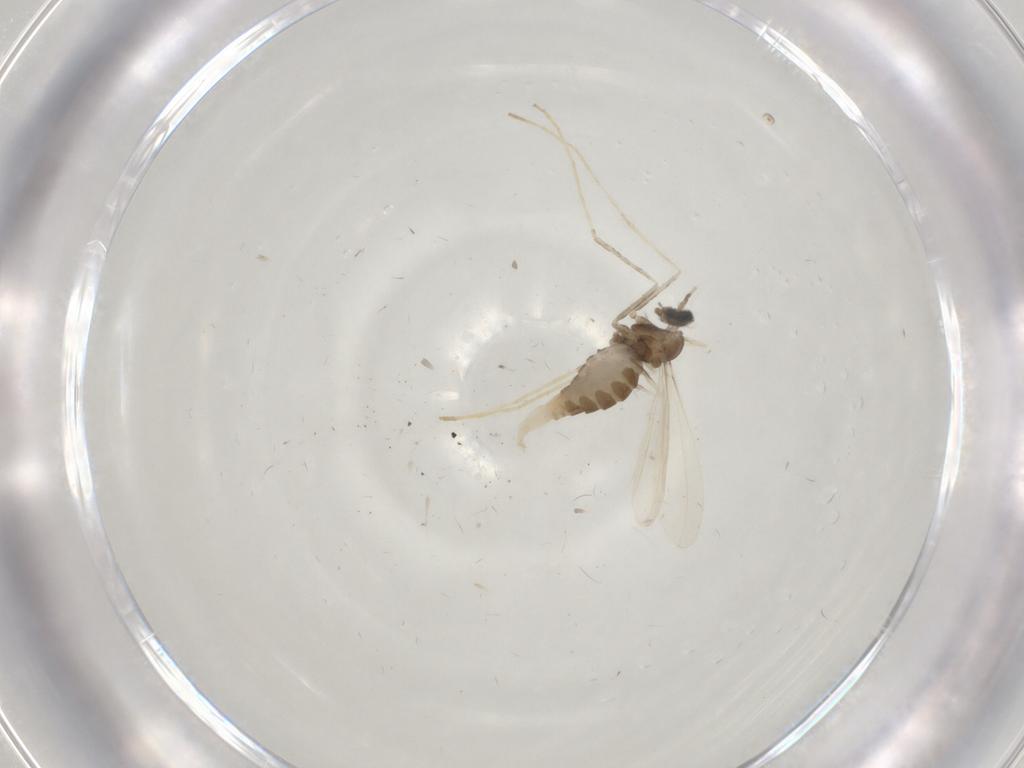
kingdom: Animalia
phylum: Arthropoda
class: Insecta
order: Diptera
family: Cecidomyiidae
